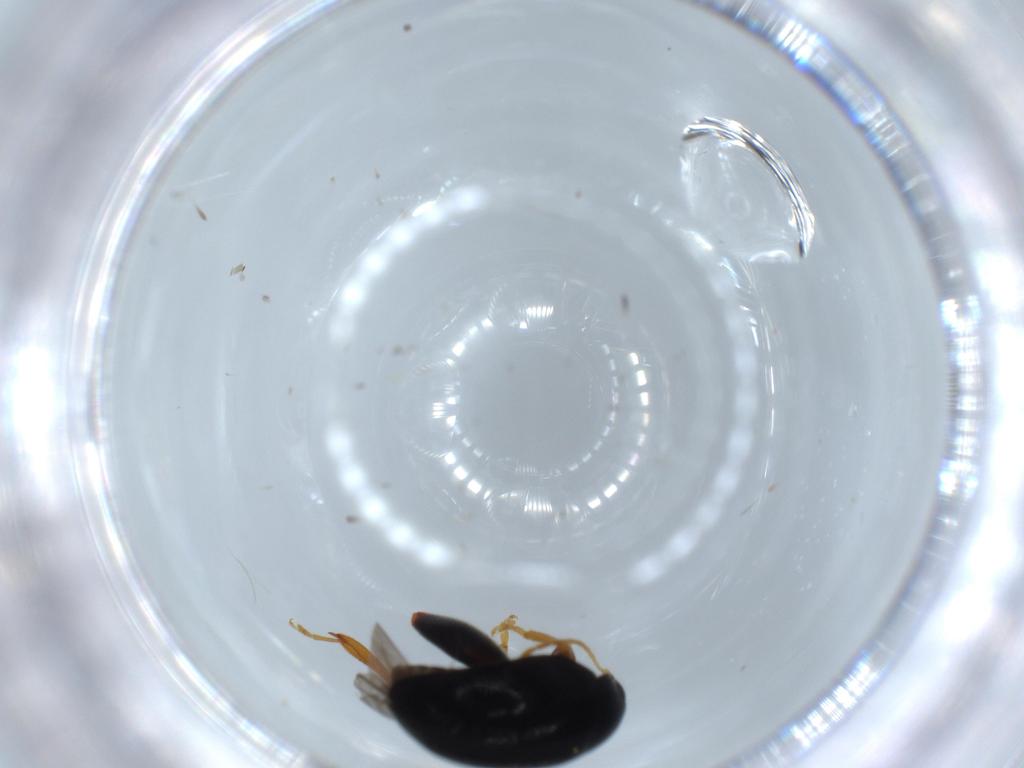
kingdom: Animalia
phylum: Arthropoda
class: Insecta
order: Coleoptera
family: Chrysomelidae
